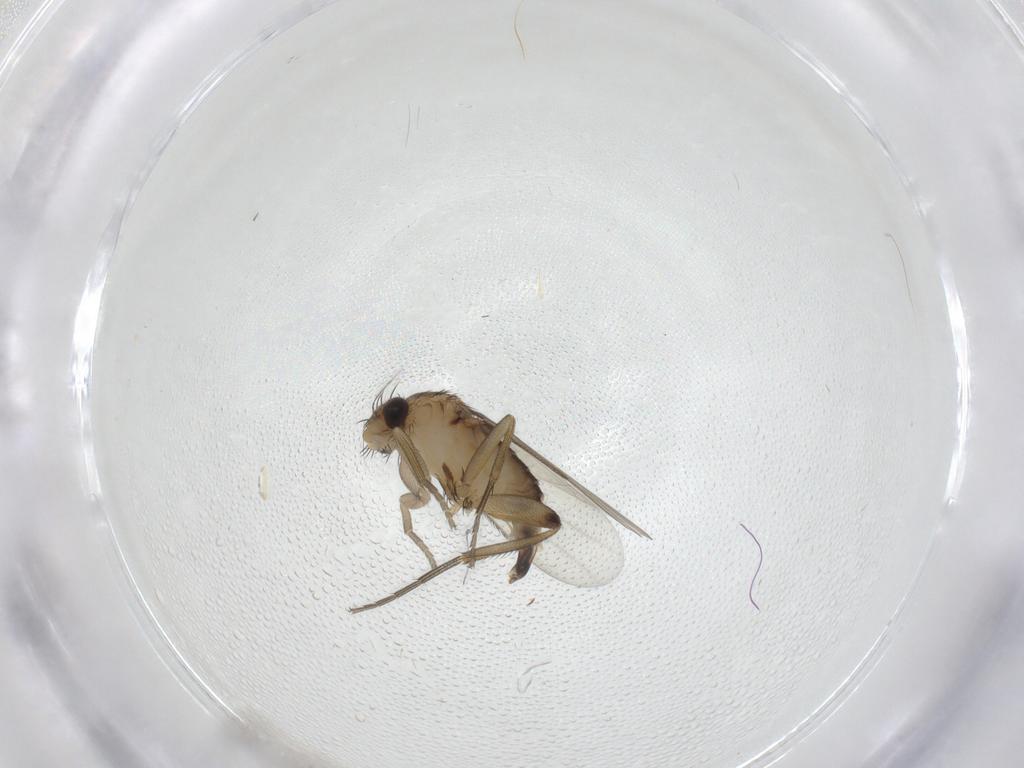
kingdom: Animalia
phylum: Arthropoda
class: Insecta
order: Diptera
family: Phoridae
